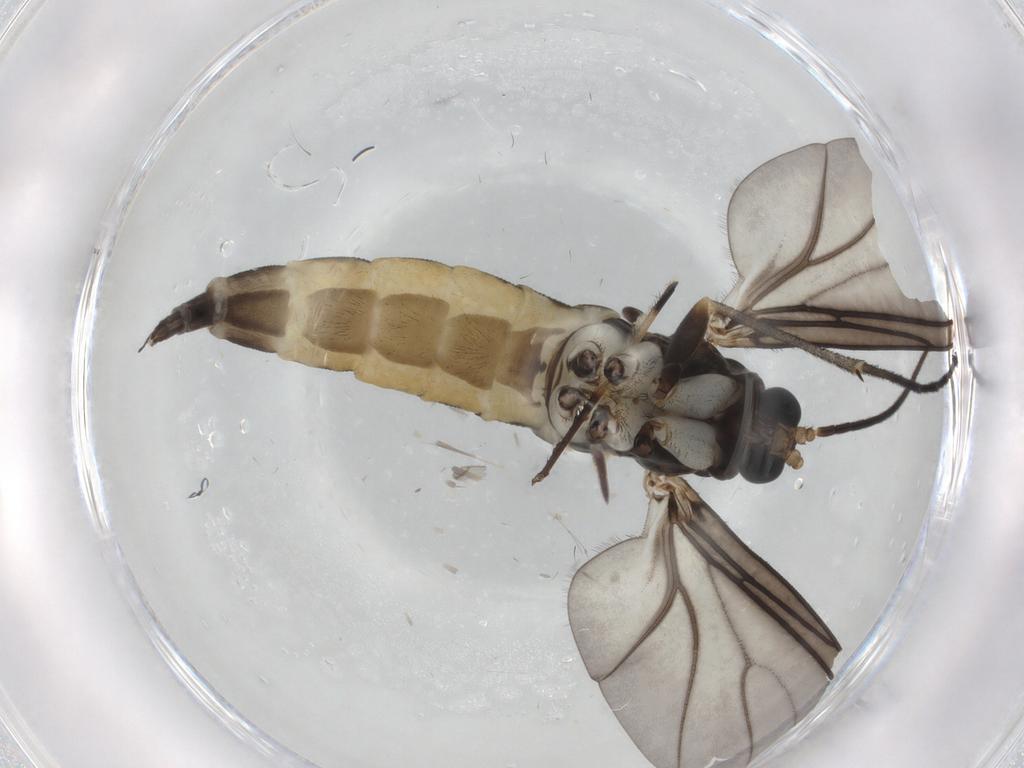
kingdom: Animalia
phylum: Arthropoda
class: Insecta
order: Diptera
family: Sciaridae
